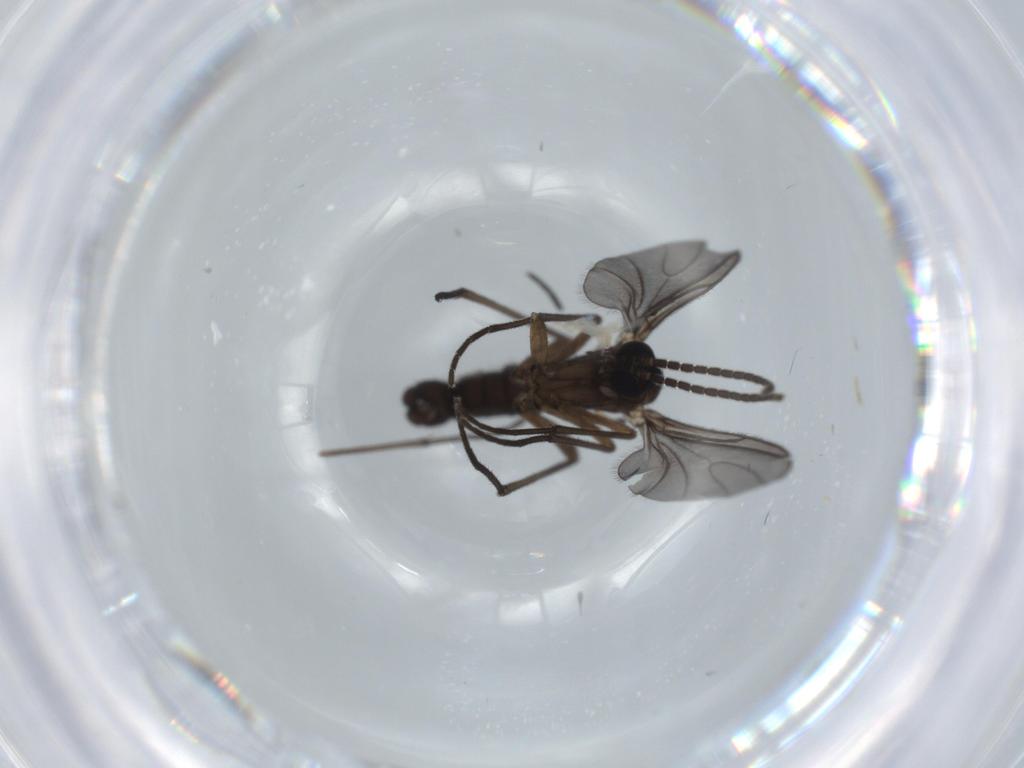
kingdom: Animalia
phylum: Arthropoda
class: Insecta
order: Diptera
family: Sciaridae
